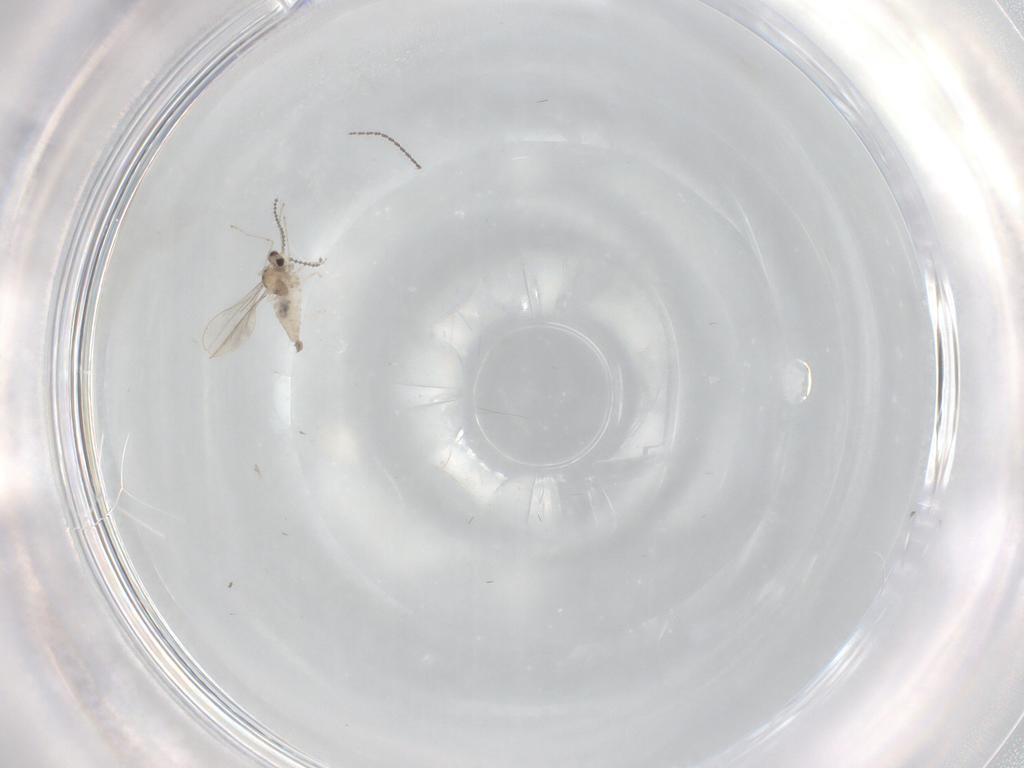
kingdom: Animalia
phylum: Arthropoda
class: Insecta
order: Diptera
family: Cecidomyiidae
